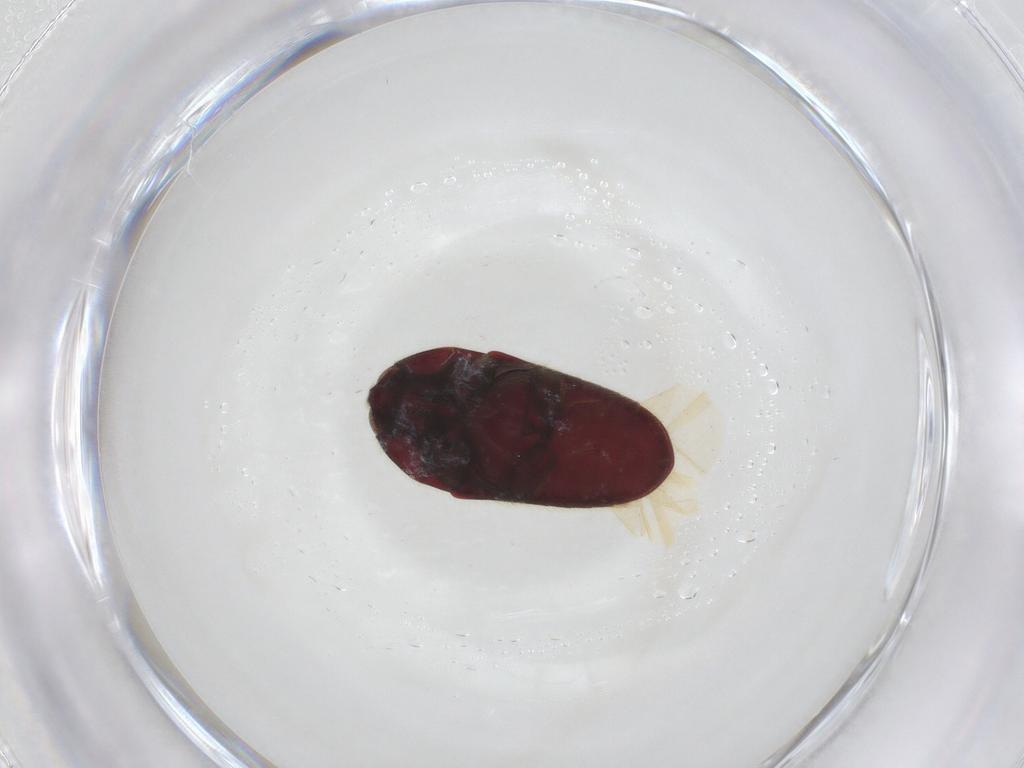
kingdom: Animalia
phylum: Arthropoda
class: Insecta
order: Coleoptera
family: Throscidae
